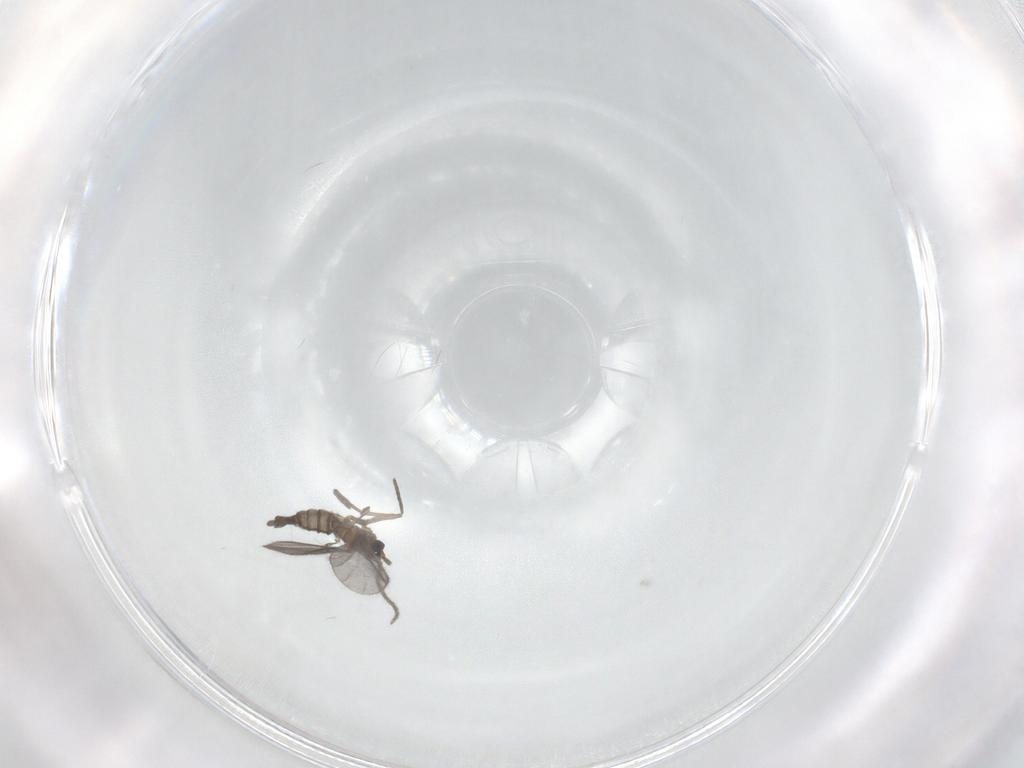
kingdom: Animalia
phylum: Arthropoda
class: Insecta
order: Diptera
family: Sciaridae
